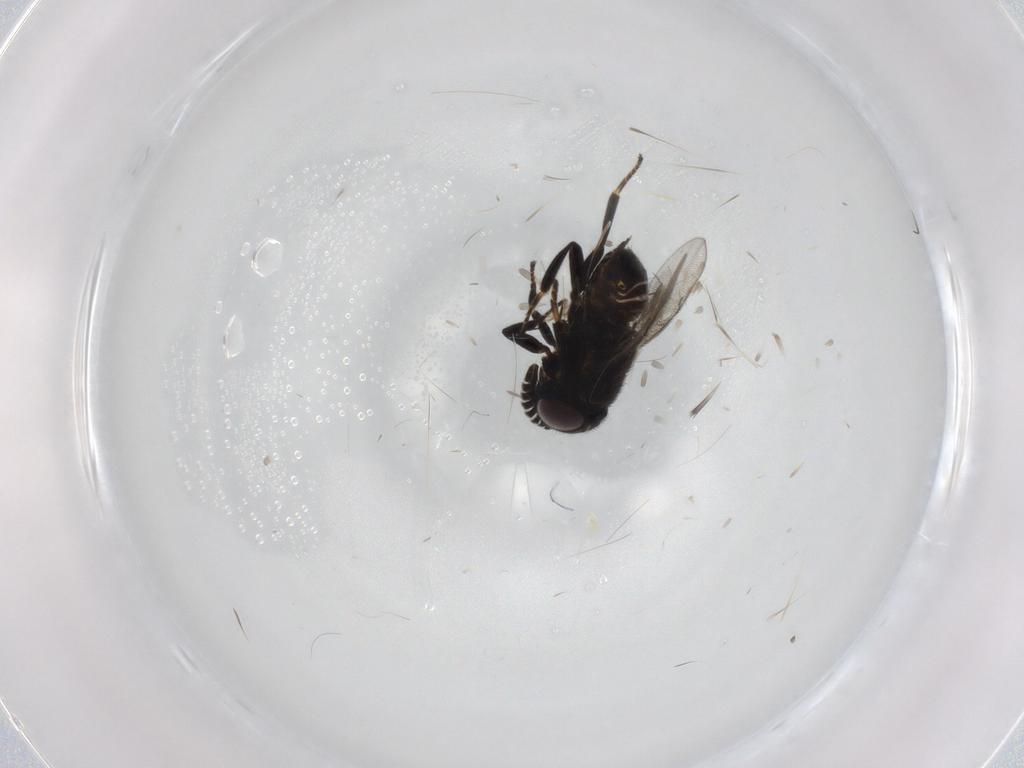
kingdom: Animalia
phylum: Arthropoda
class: Insecta
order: Hymenoptera
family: Encyrtidae
